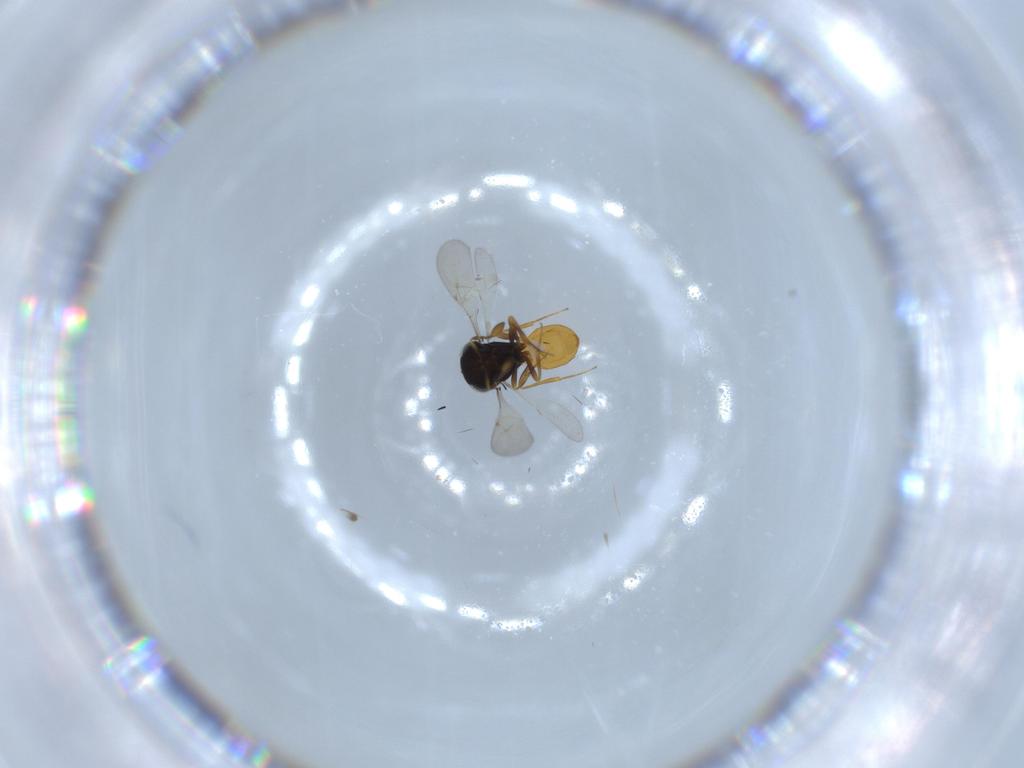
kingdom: Animalia
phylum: Arthropoda
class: Insecta
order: Hymenoptera
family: Scelionidae
